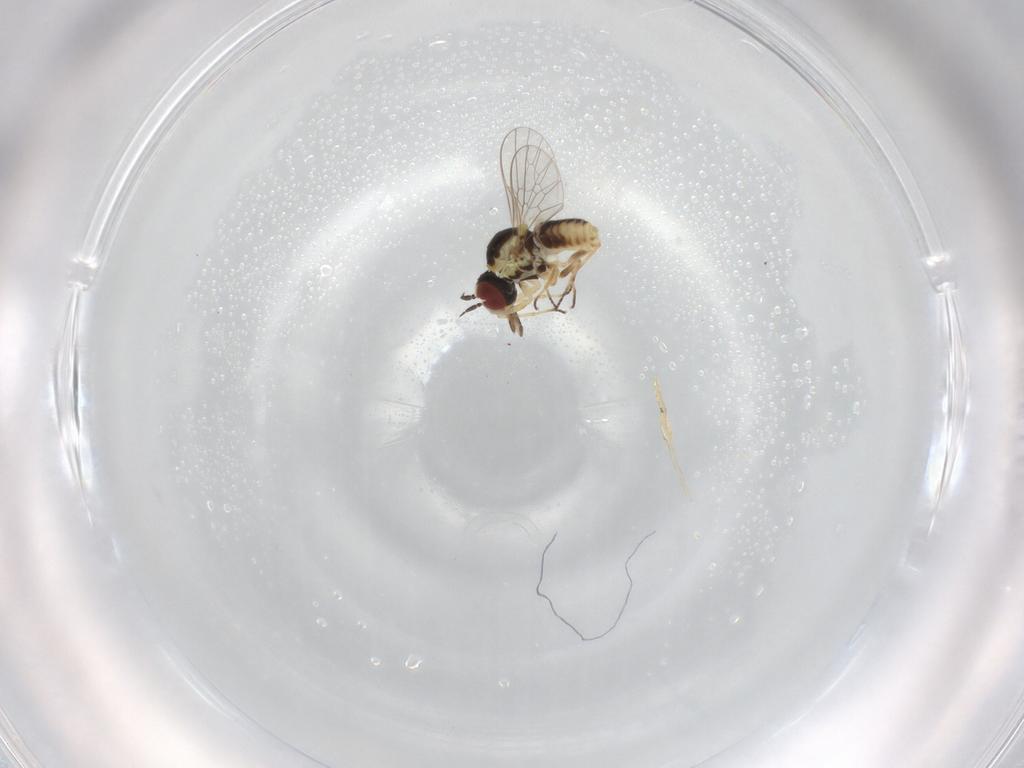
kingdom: Animalia
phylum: Arthropoda
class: Insecta
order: Diptera
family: Mythicomyiidae
